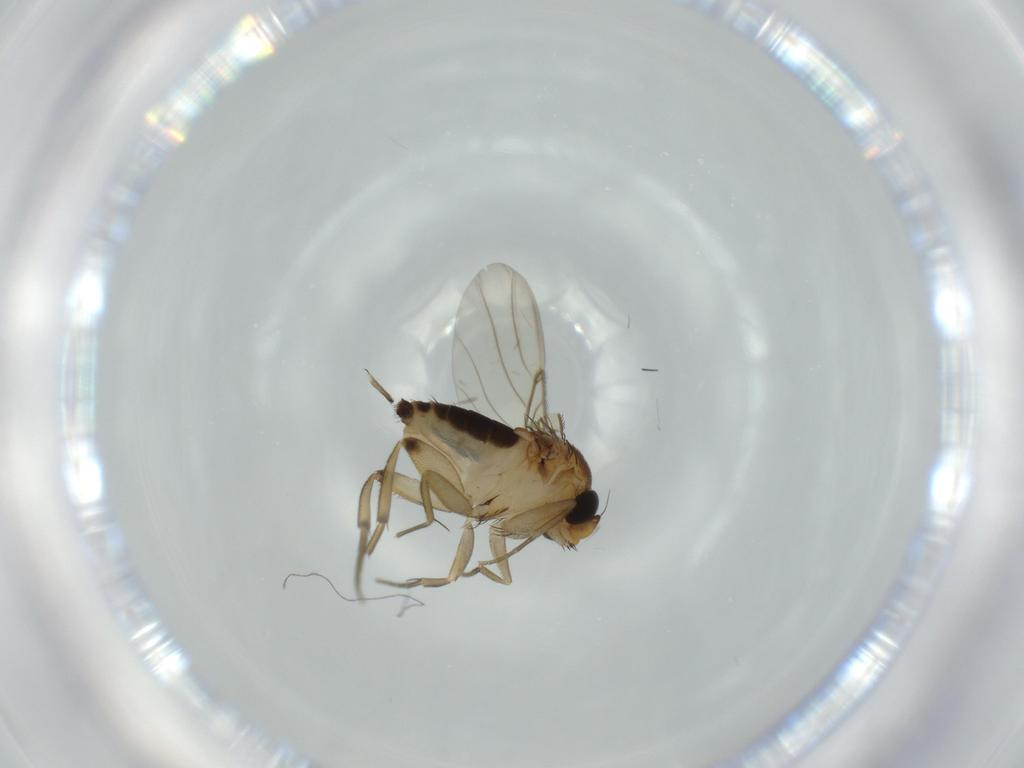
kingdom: Animalia
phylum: Arthropoda
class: Insecta
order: Diptera
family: Milichiidae
